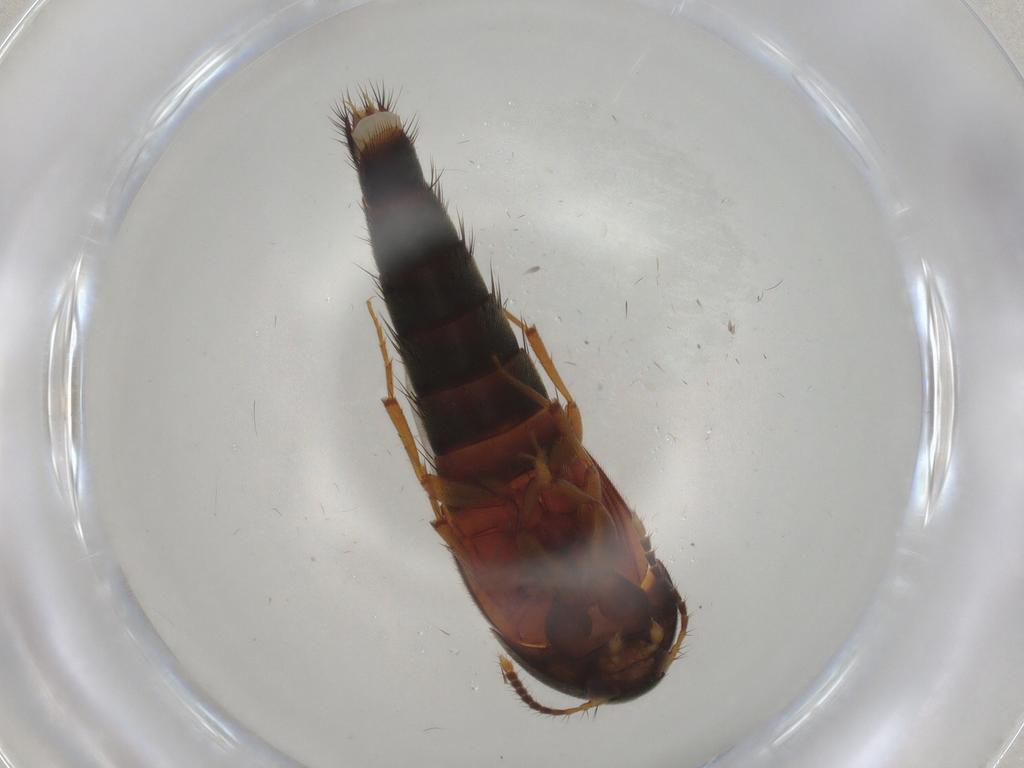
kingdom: Animalia
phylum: Arthropoda
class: Insecta
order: Coleoptera
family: Staphylinidae
